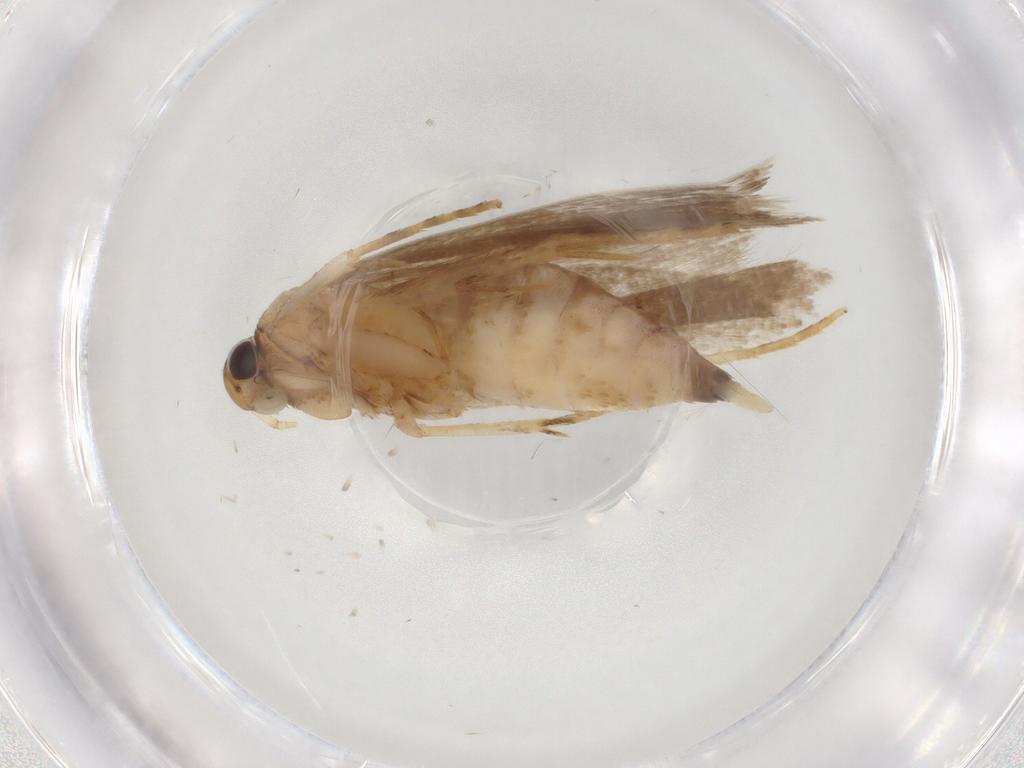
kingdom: Animalia
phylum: Arthropoda
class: Insecta
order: Lepidoptera
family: Gelechiidae
